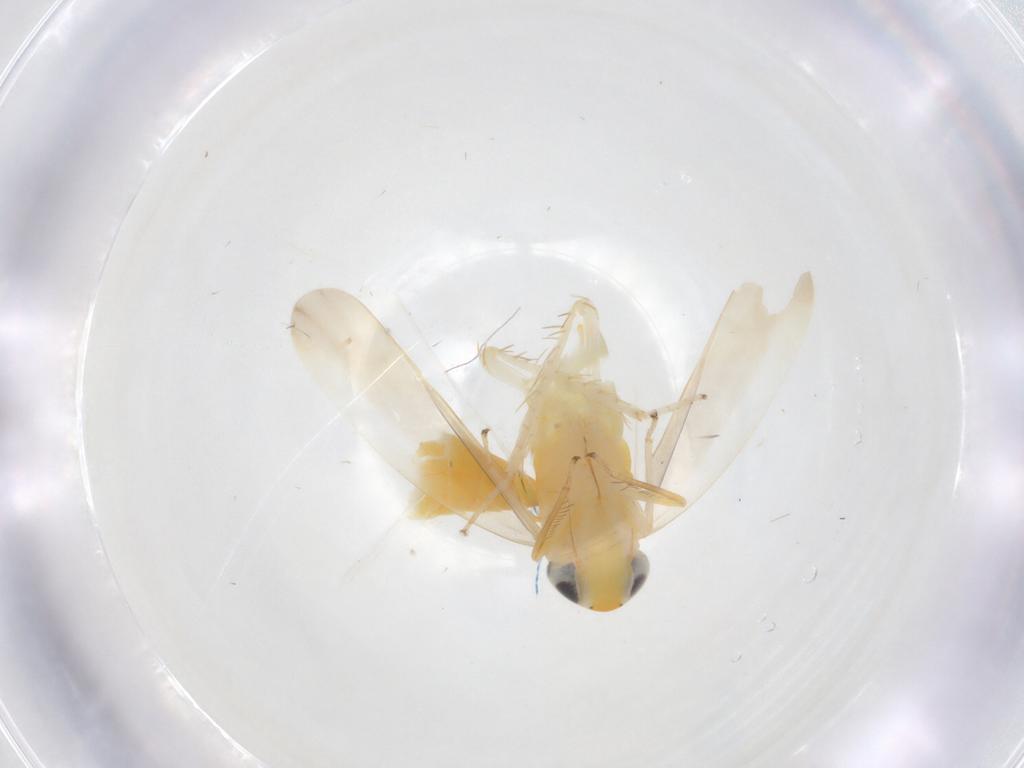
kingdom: Animalia
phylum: Arthropoda
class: Insecta
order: Hemiptera
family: Cicadellidae
